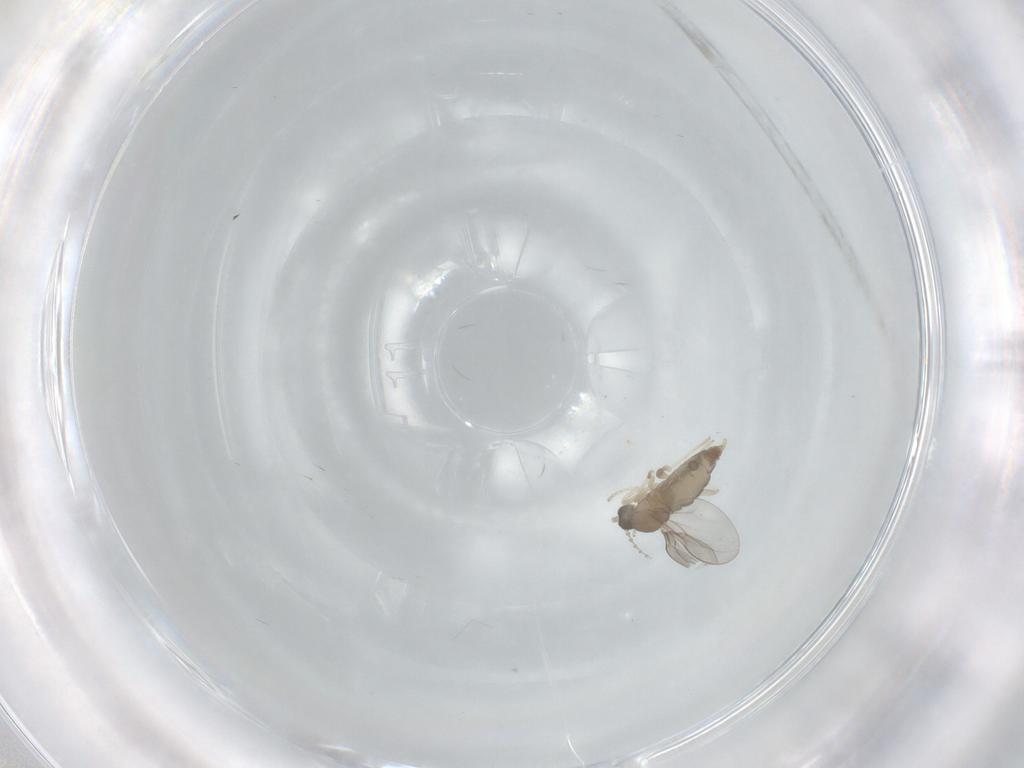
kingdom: Animalia
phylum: Arthropoda
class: Insecta
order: Diptera
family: Cecidomyiidae
